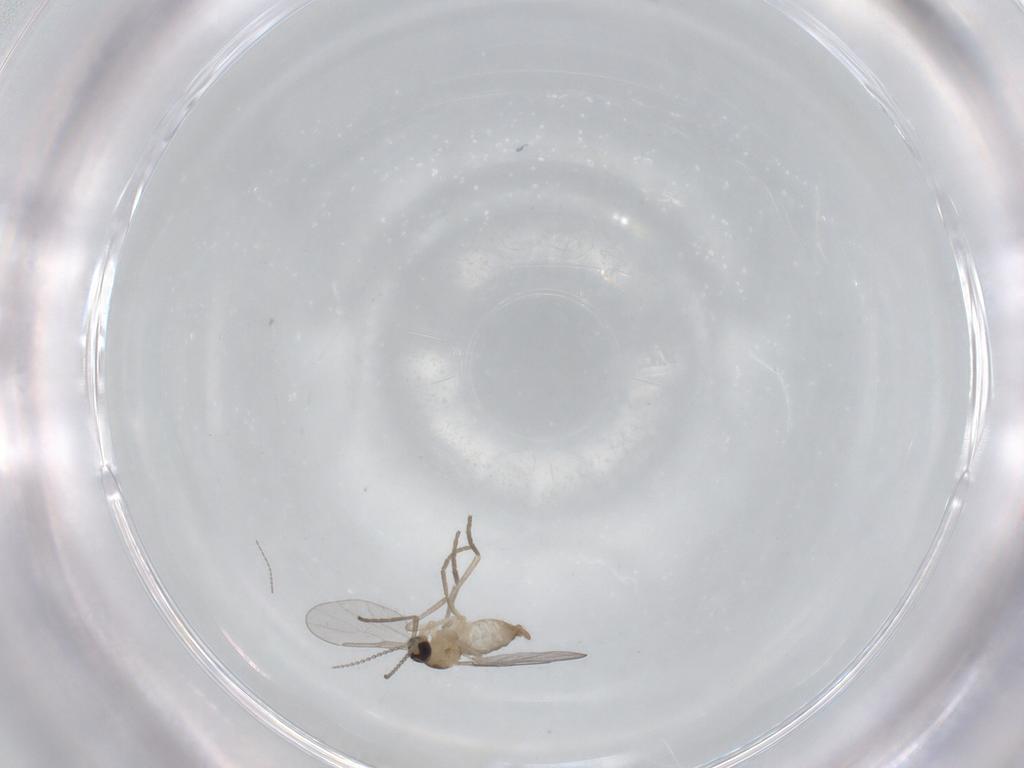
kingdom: Animalia
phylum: Arthropoda
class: Insecta
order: Diptera
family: Cecidomyiidae
